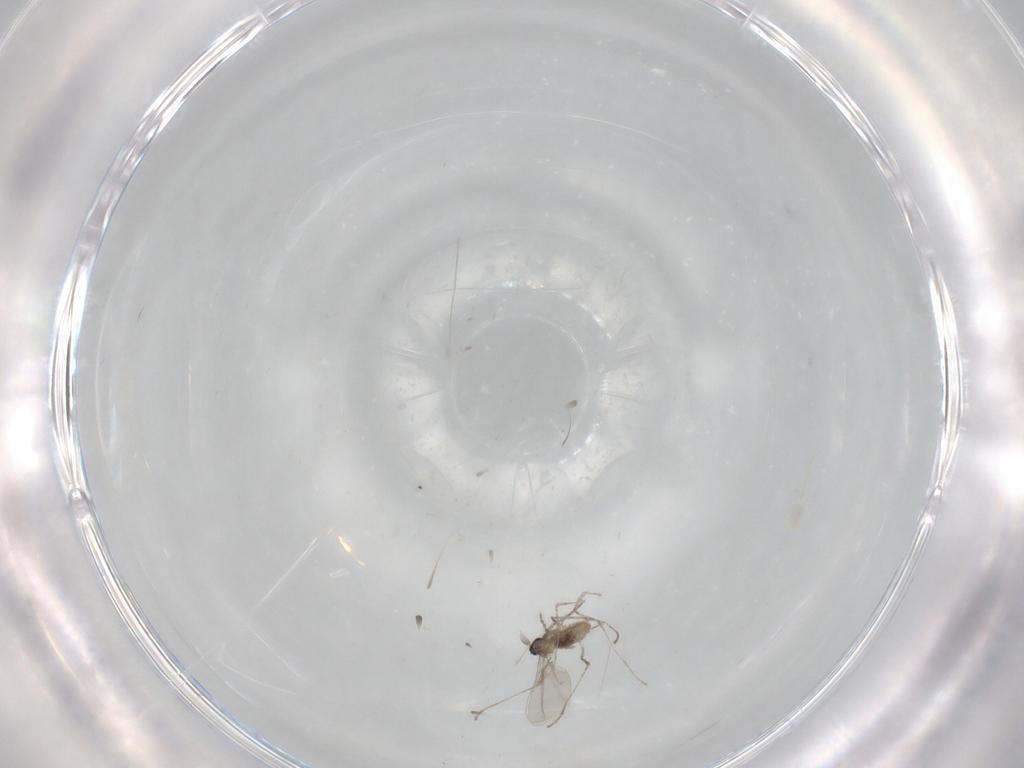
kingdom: Animalia
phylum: Arthropoda
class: Insecta
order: Diptera
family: Cecidomyiidae
